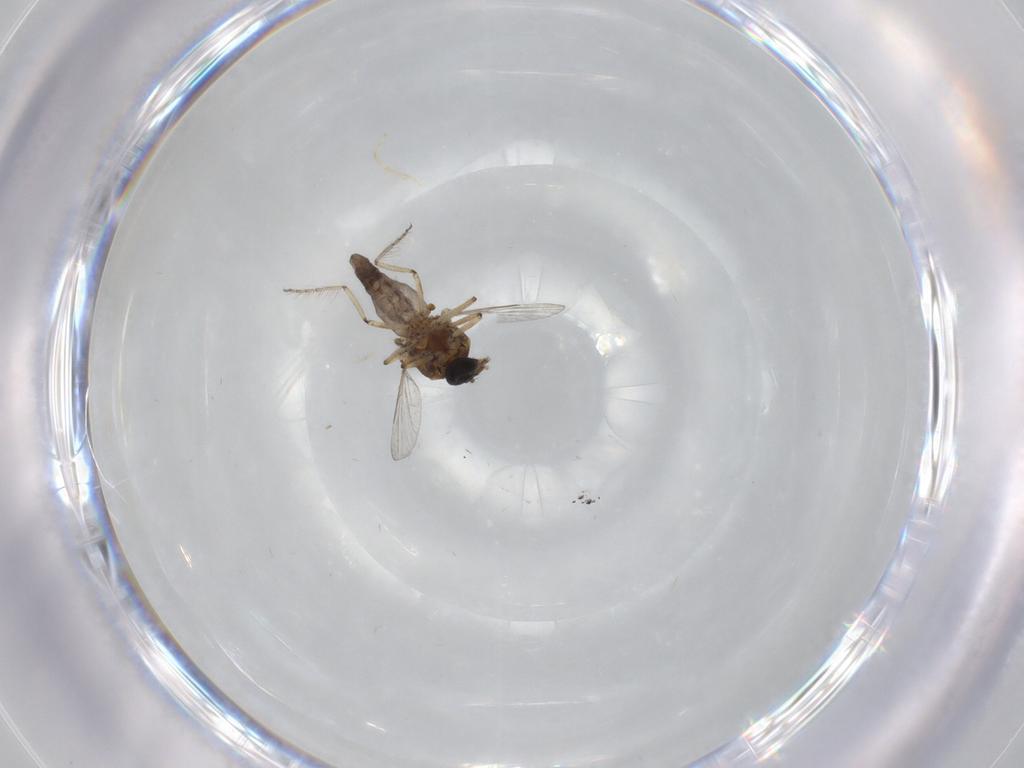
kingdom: Animalia
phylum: Arthropoda
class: Insecta
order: Diptera
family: Ceratopogonidae
